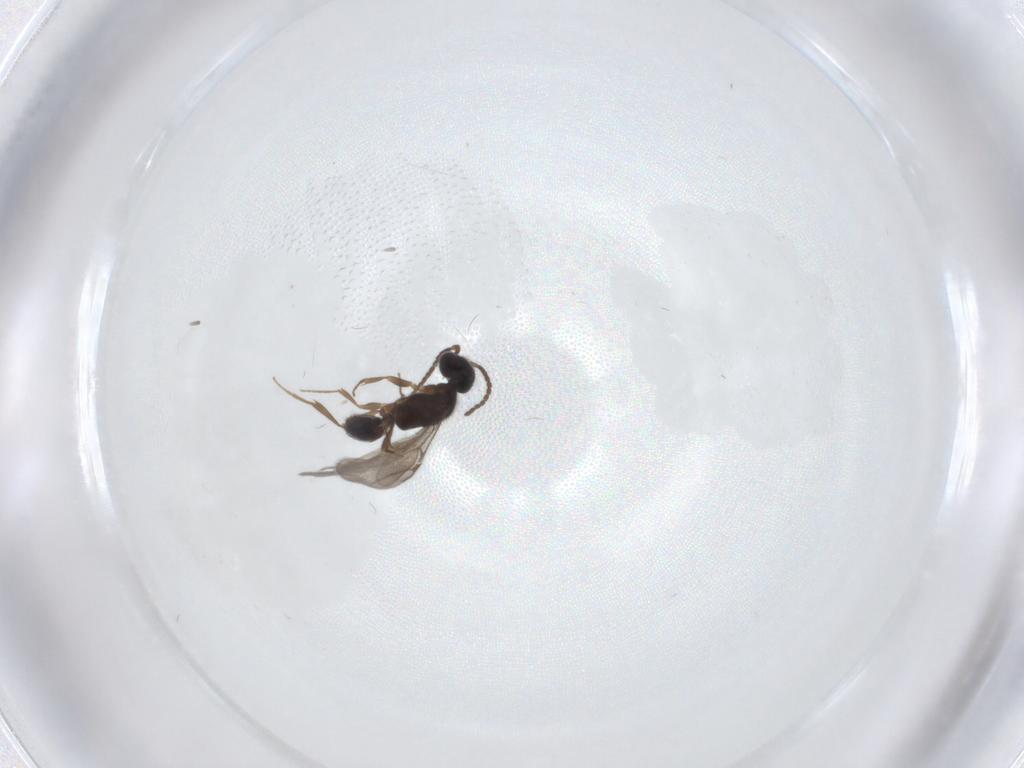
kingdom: Animalia
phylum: Arthropoda
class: Insecta
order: Hymenoptera
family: Bethylidae
